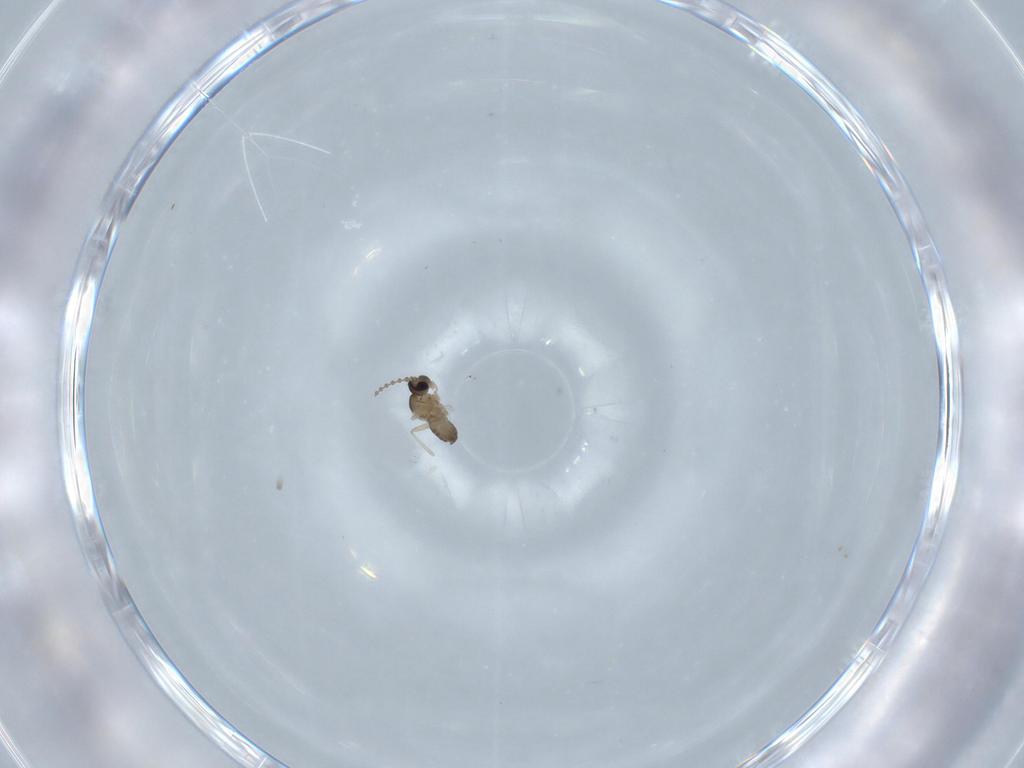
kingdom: Animalia
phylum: Arthropoda
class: Insecta
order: Diptera
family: Cecidomyiidae
